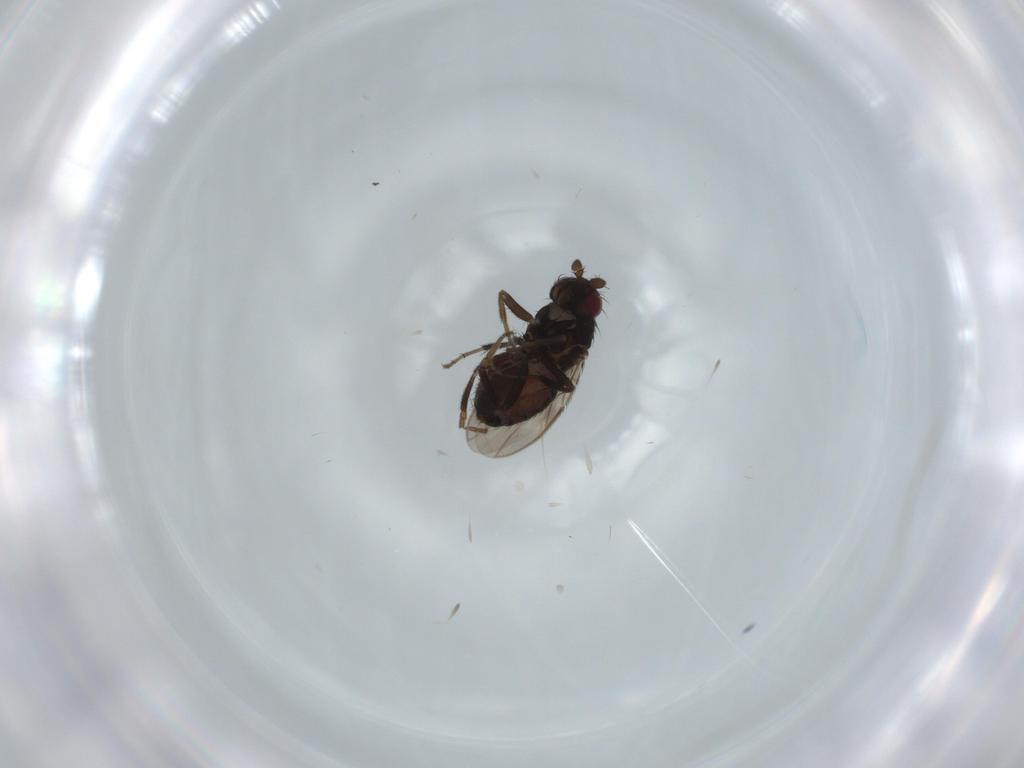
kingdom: Animalia
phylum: Arthropoda
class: Insecta
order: Diptera
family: Sphaeroceridae
